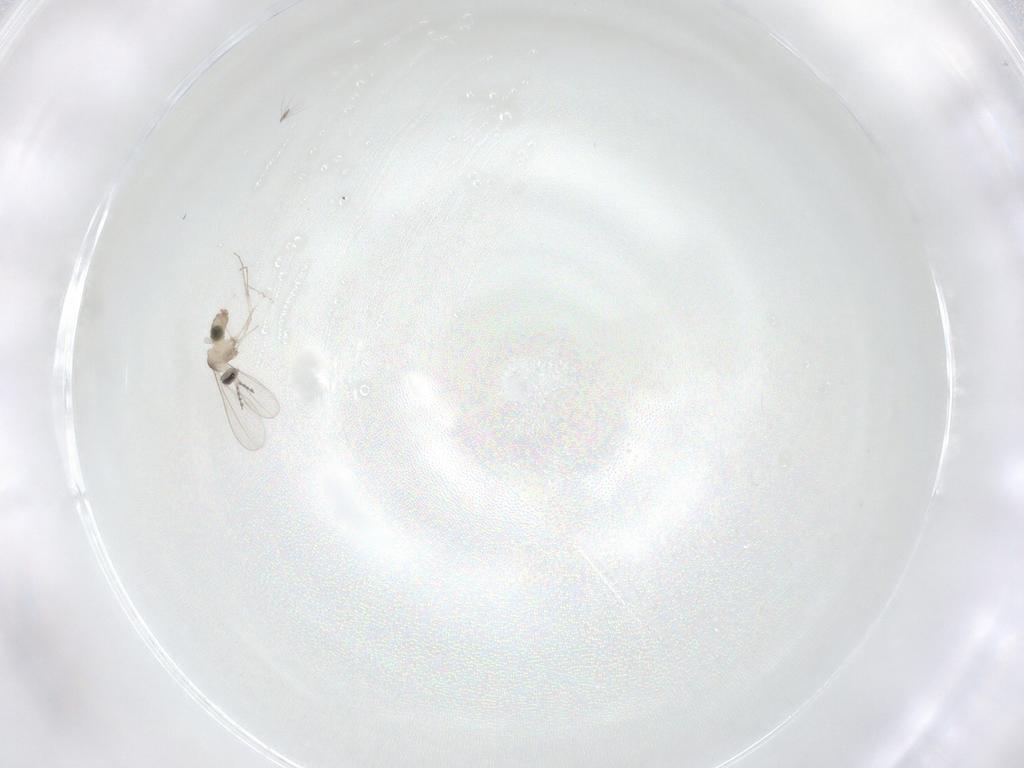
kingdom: Animalia
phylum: Arthropoda
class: Insecta
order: Diptera
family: Cecidomyiidae
